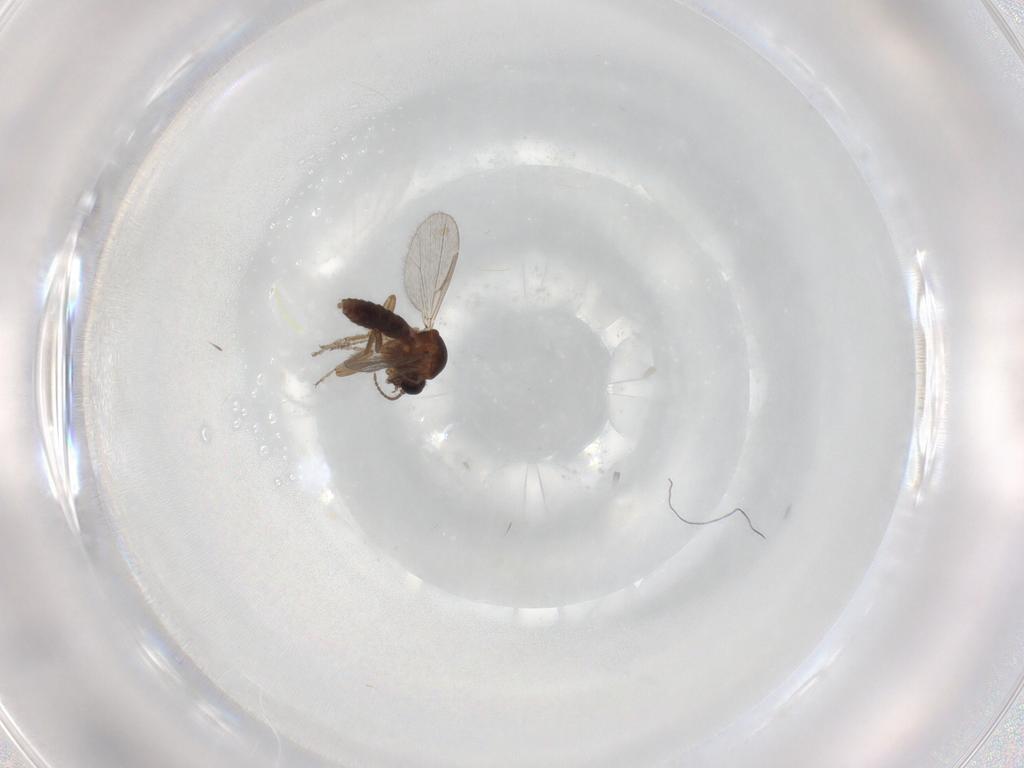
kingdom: Animalia
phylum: Arthropoda
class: Insecta
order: Diptera
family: Ceratopogonidae
